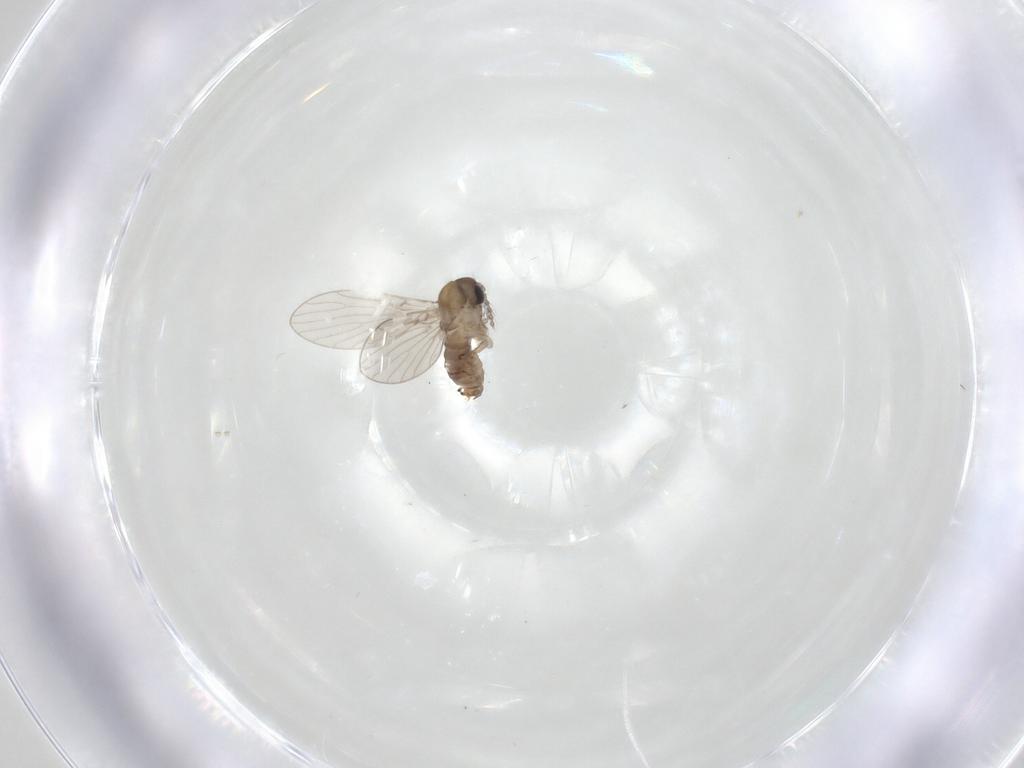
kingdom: Animalia
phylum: Arthropoda
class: Insecta
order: Diptera
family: Psychodidae
